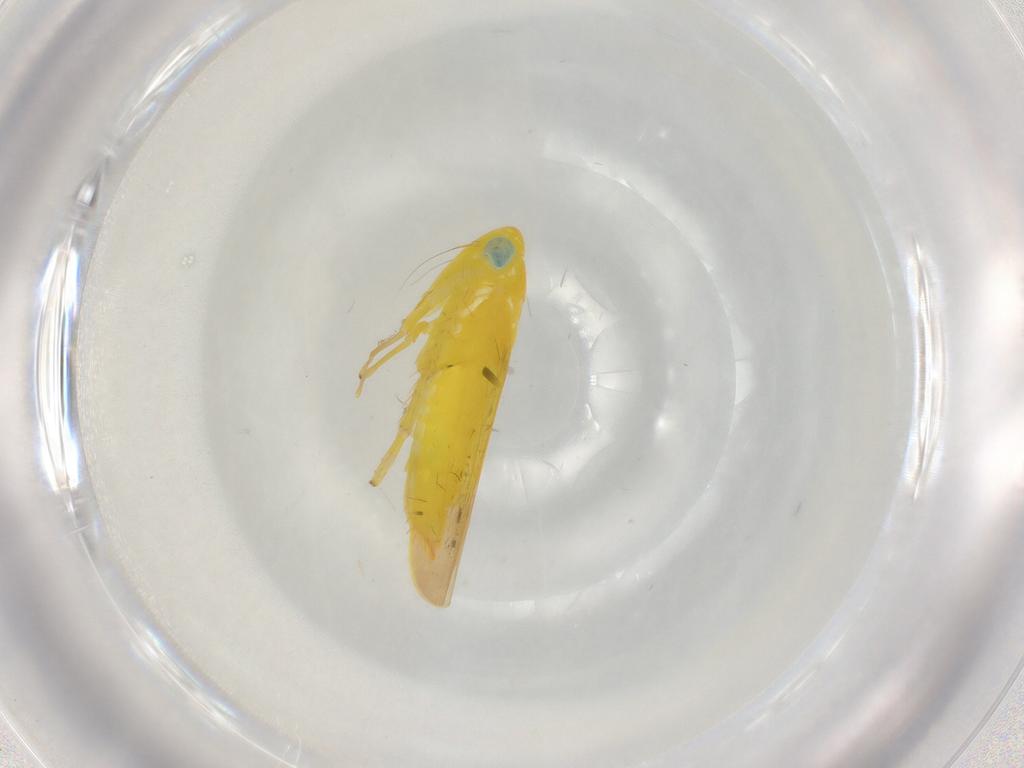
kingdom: Animalia
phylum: Arthropoda
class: Insecta
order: Hemiptera
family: Cicadellidae
